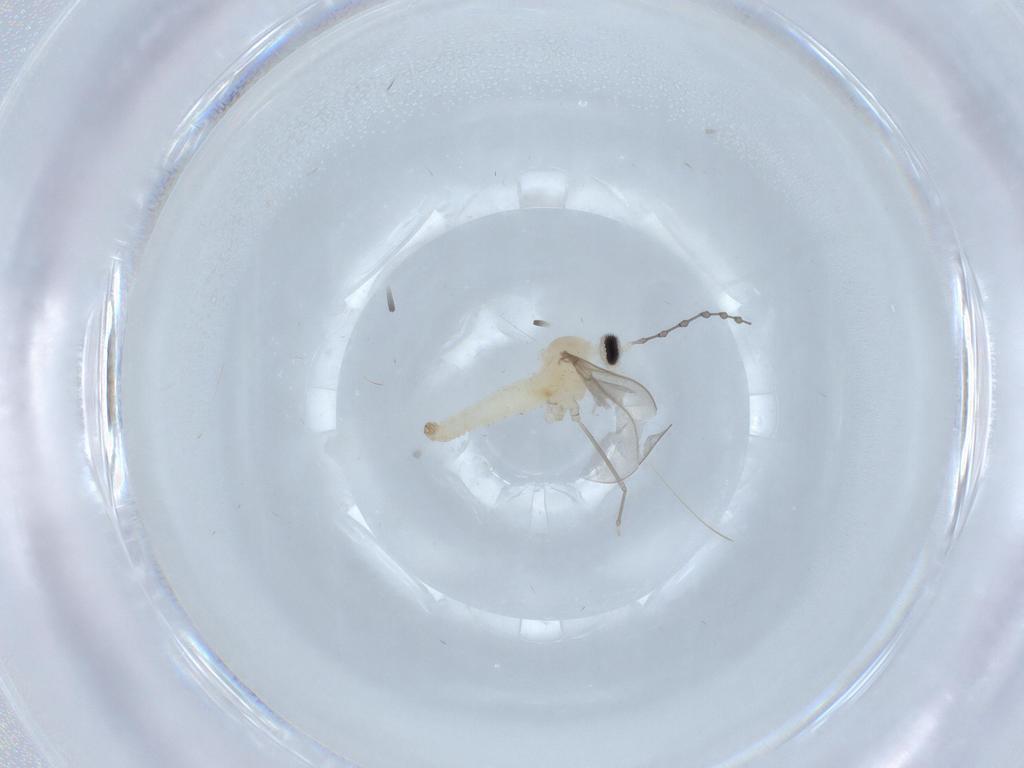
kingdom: Animalia
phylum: Arthropoda
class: Insecta
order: Diptera
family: Cecidomyiidae
